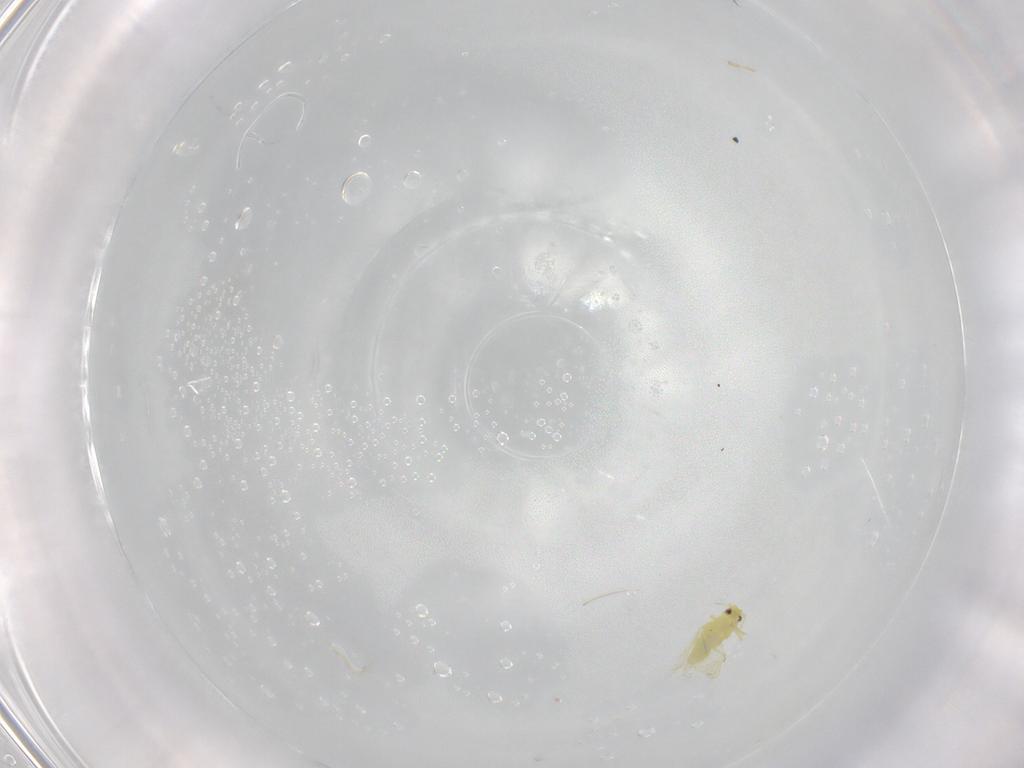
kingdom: Animalia
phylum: Arthropoda
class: Insecta
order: Hemiptera
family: Aleyrodidae
